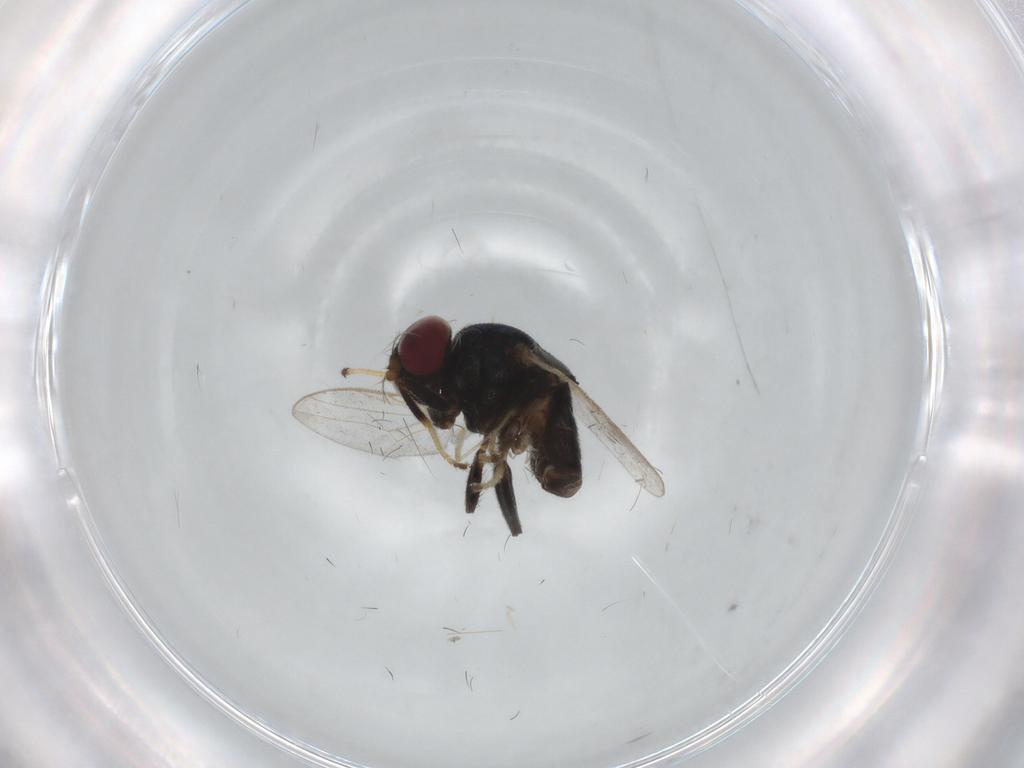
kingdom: Animalia
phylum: Arthropoda
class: Insecta
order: Diptera
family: Chloropidae
